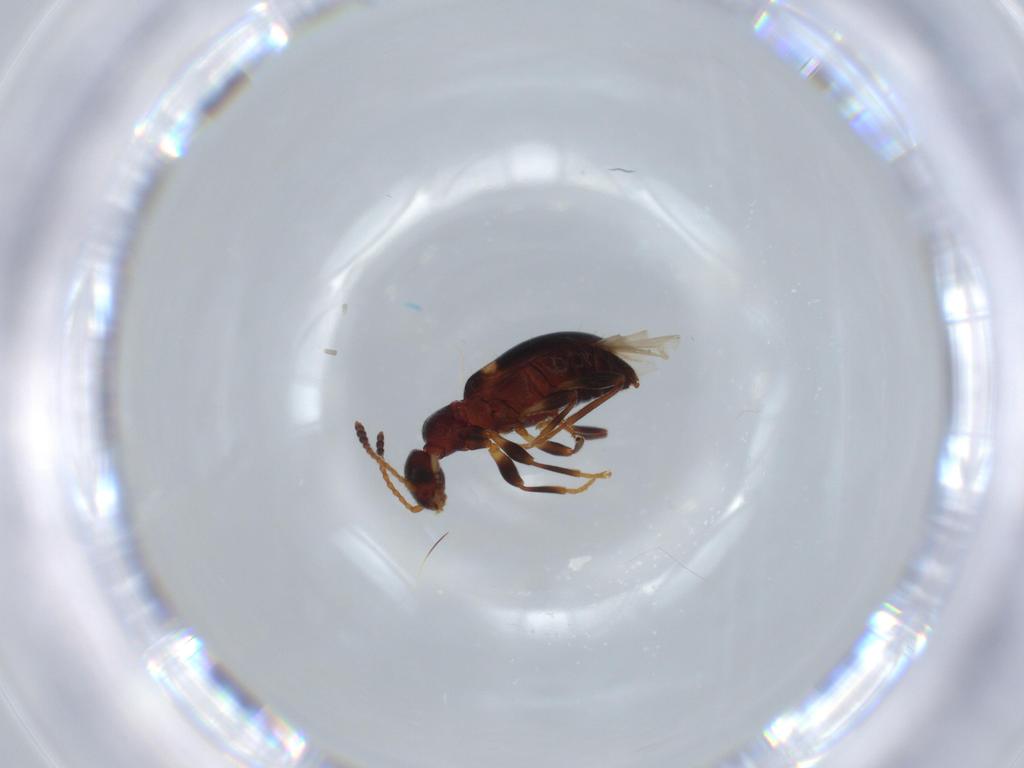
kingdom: Animalia
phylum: Arthropoda
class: Insecta
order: Coleoptera
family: Anthicidae
